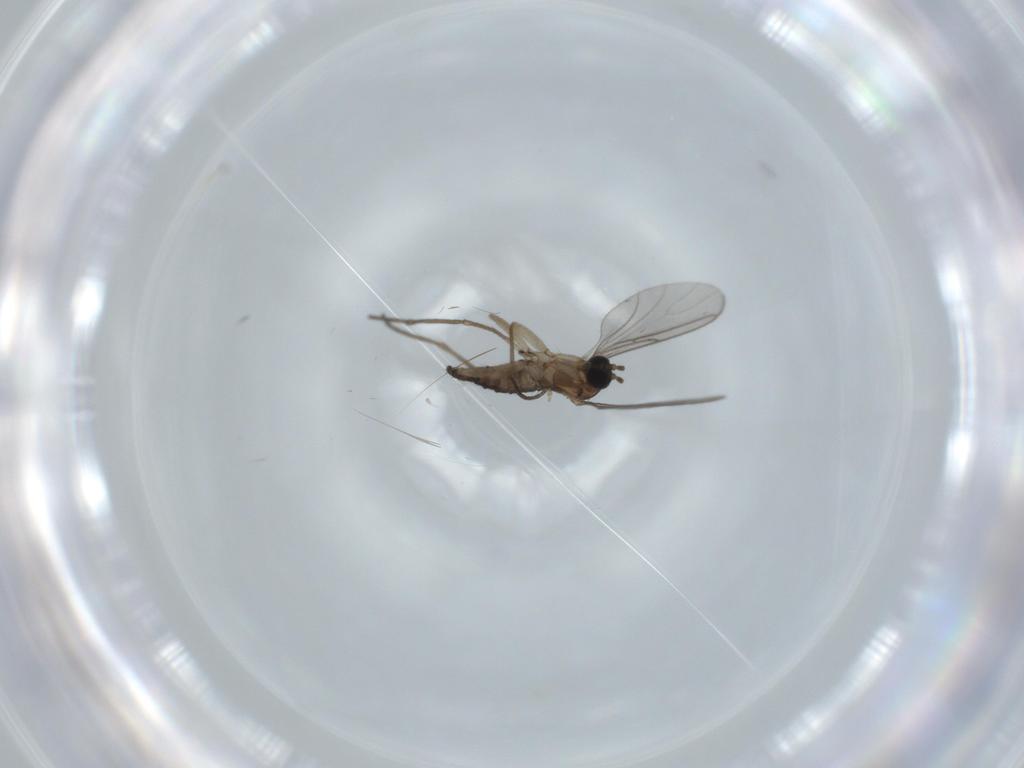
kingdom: Animalia
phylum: Arthropoda
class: Insecta
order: Diptera
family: Sciaridae
